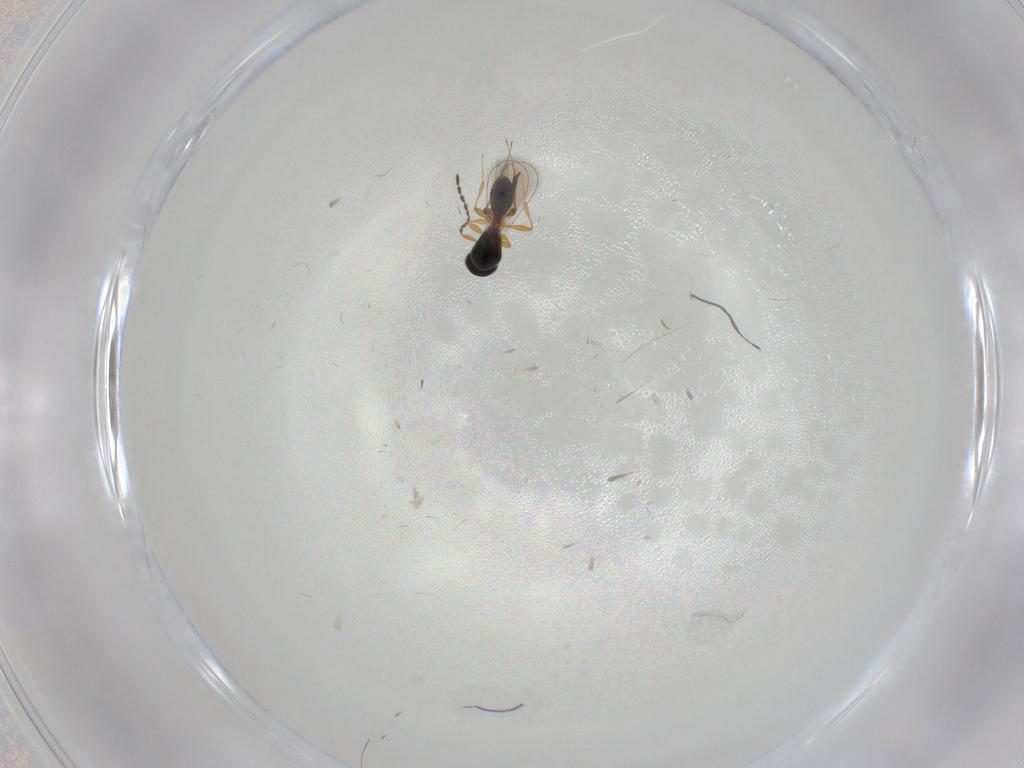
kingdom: Animalia
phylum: Arthropoda
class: Insecta
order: Hymenoptera
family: Platygastridae
